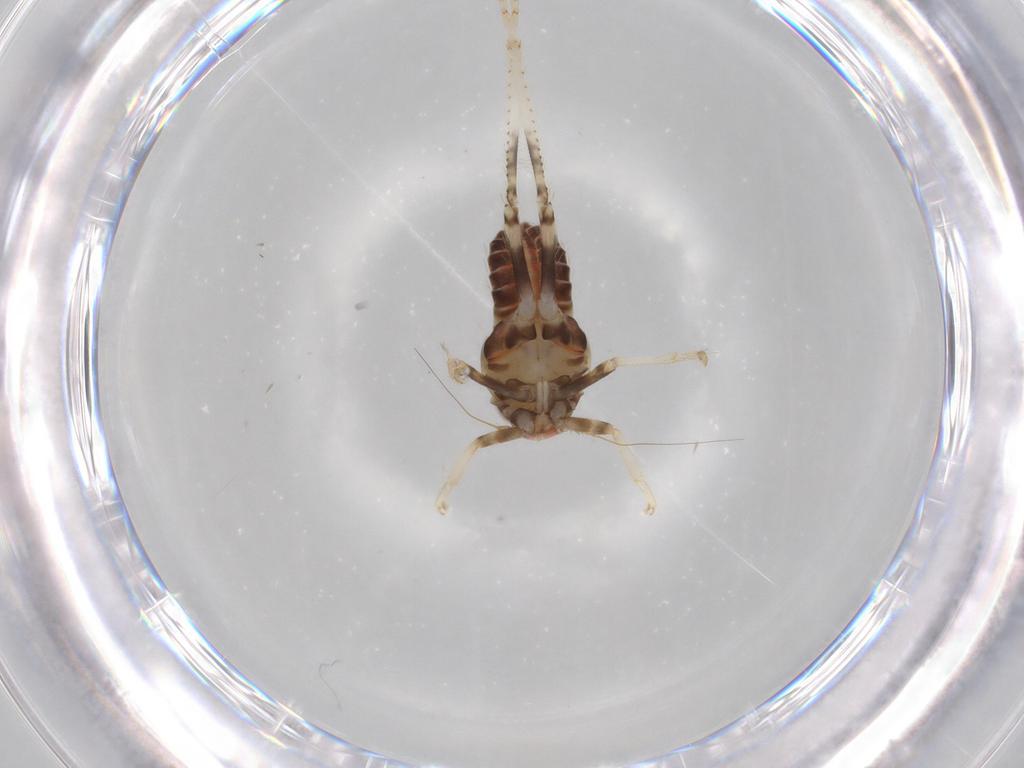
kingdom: Animalia
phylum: Arthropoda
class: Insecta
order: Hemiptera
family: Cicadellidae
